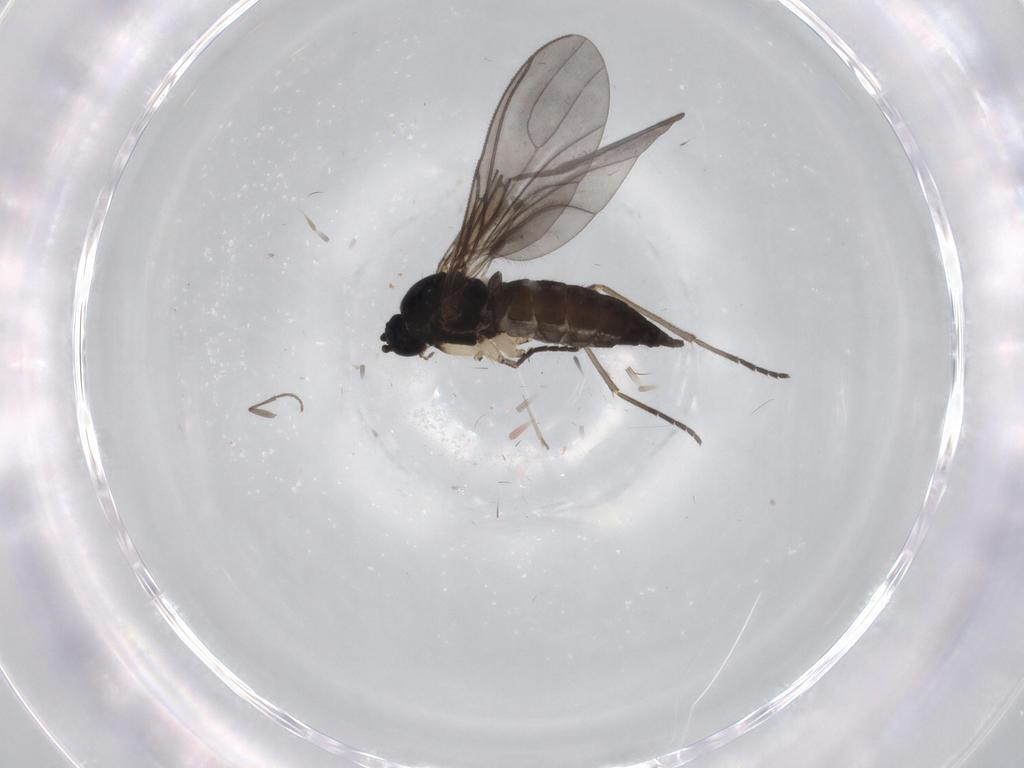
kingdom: Animalia
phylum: Arthropoda
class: Insecta
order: Diptera
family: Sciaridae
